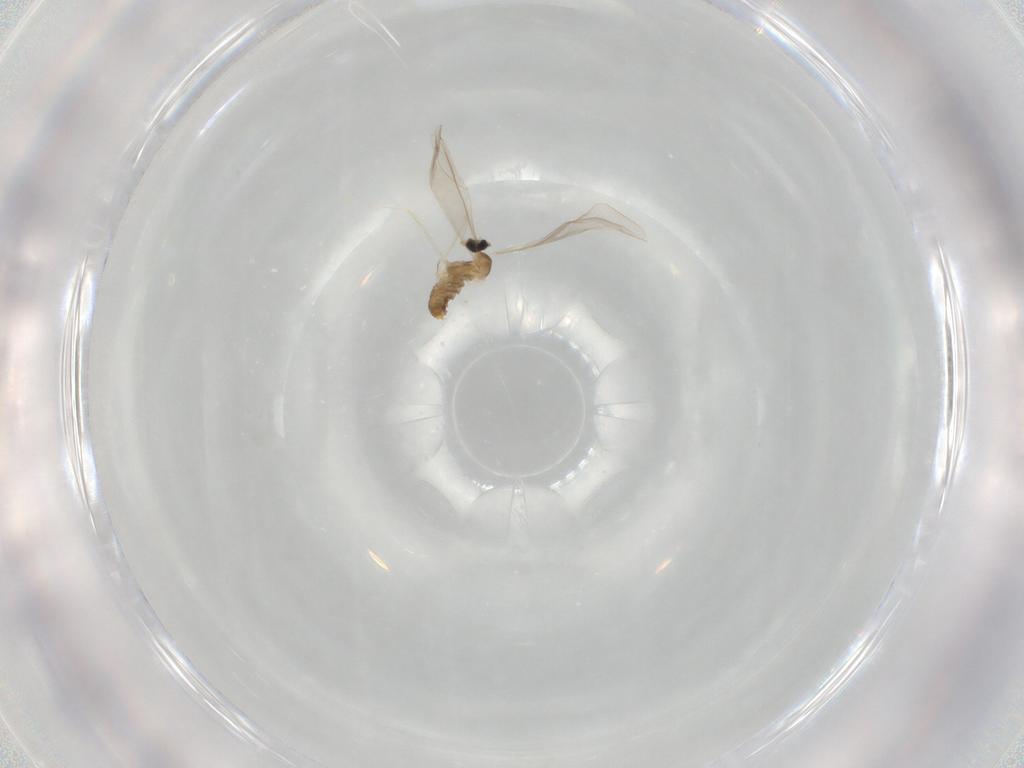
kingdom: Animalia
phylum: Arthropoda
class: Insecta
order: Diptera
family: Cecidomyiidae
